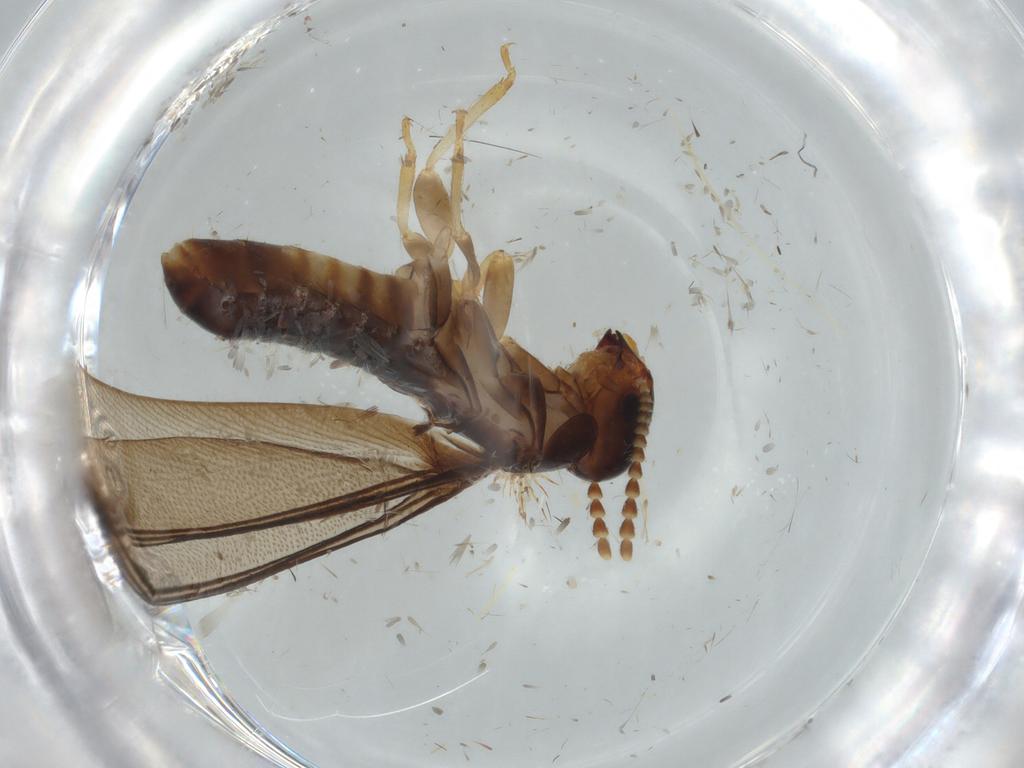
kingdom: Animalia
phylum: Arthropoda
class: Insecta
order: Blattodea
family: Kalotermitidae
